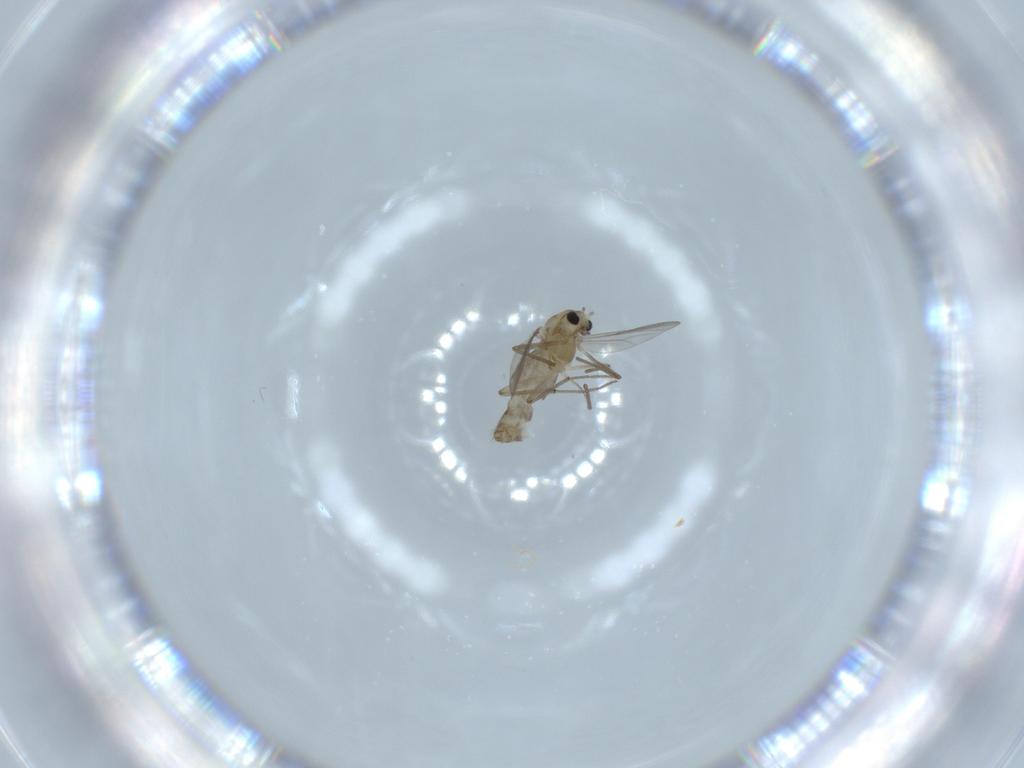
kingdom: Animalia
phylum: Arthropoda
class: Insecta
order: Diptera
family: Chironomidae
